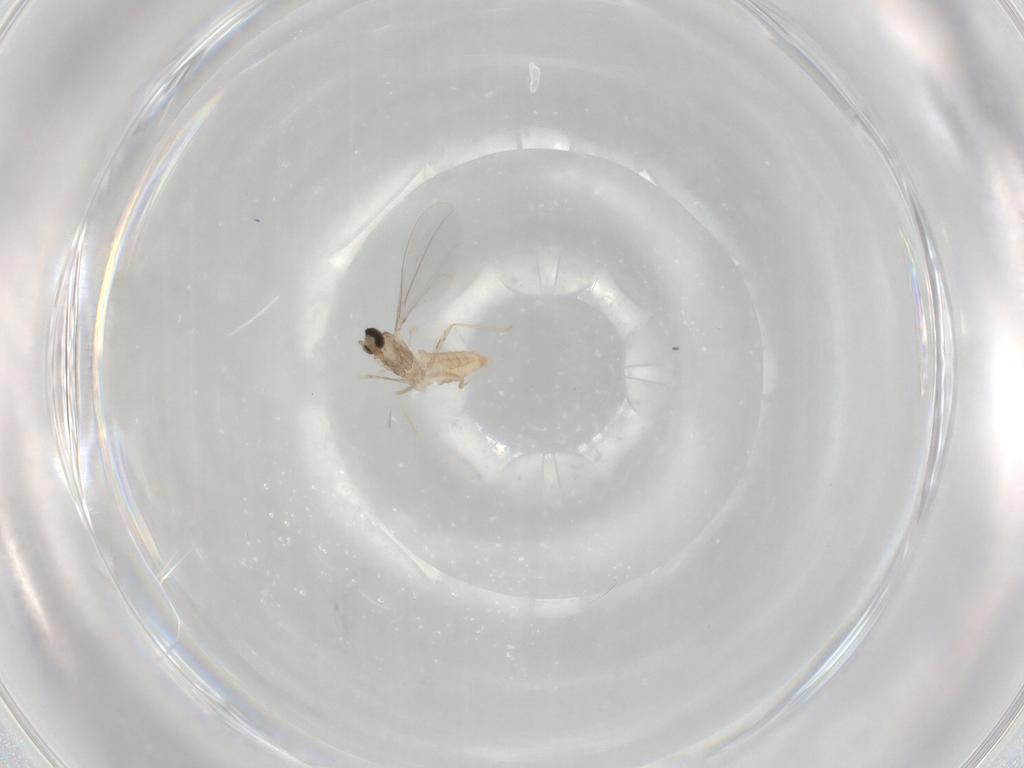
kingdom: Animalia
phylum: Arthropoda
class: Insecta
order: Diptera
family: Cecidomyiidae
